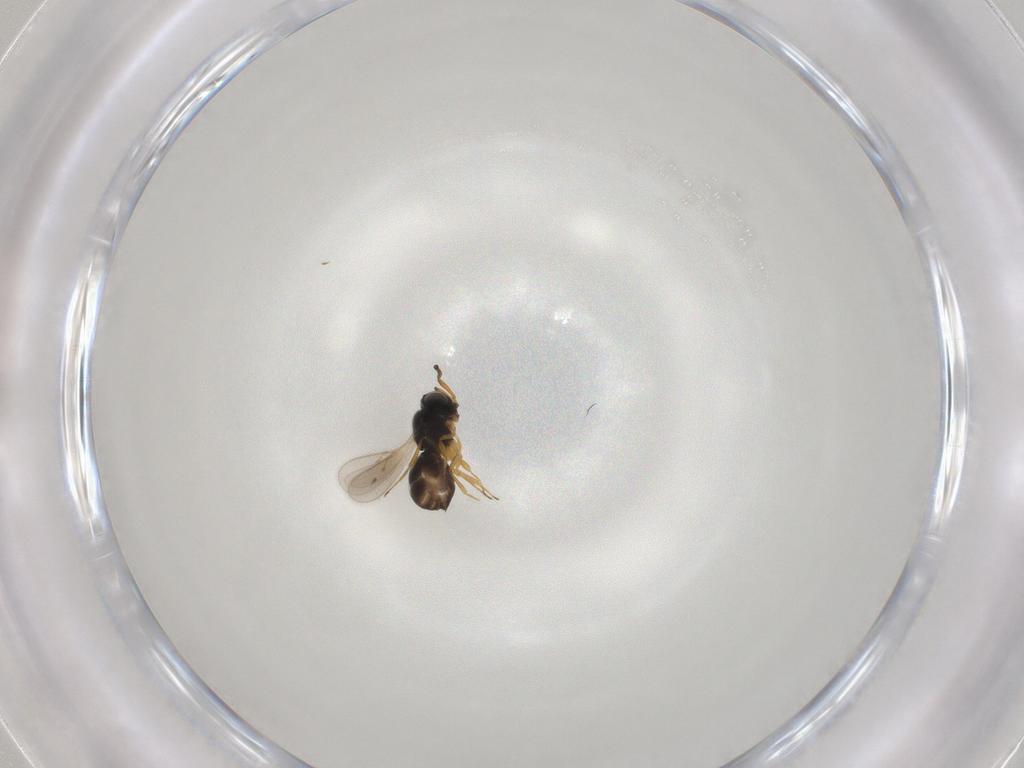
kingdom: Animalia
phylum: Arthropoda
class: Insecta
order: Hymenoptera
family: Scelionidae
